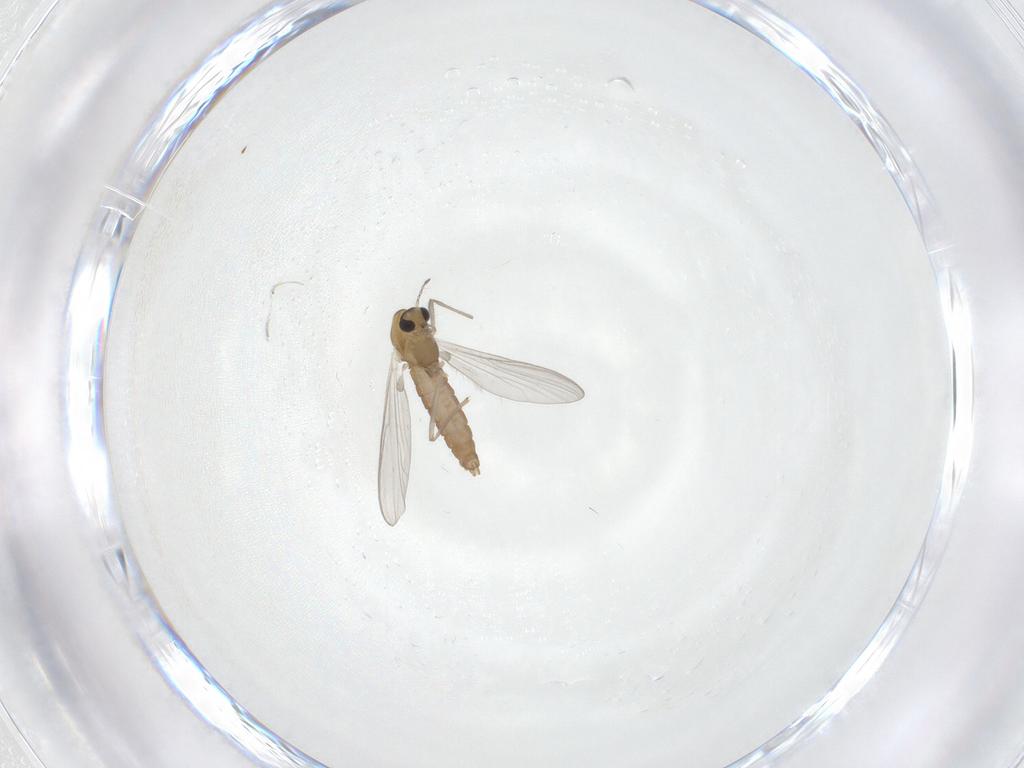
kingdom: Animalia
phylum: Arthropoda
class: Insecta
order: Diptera
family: Chironomidae
